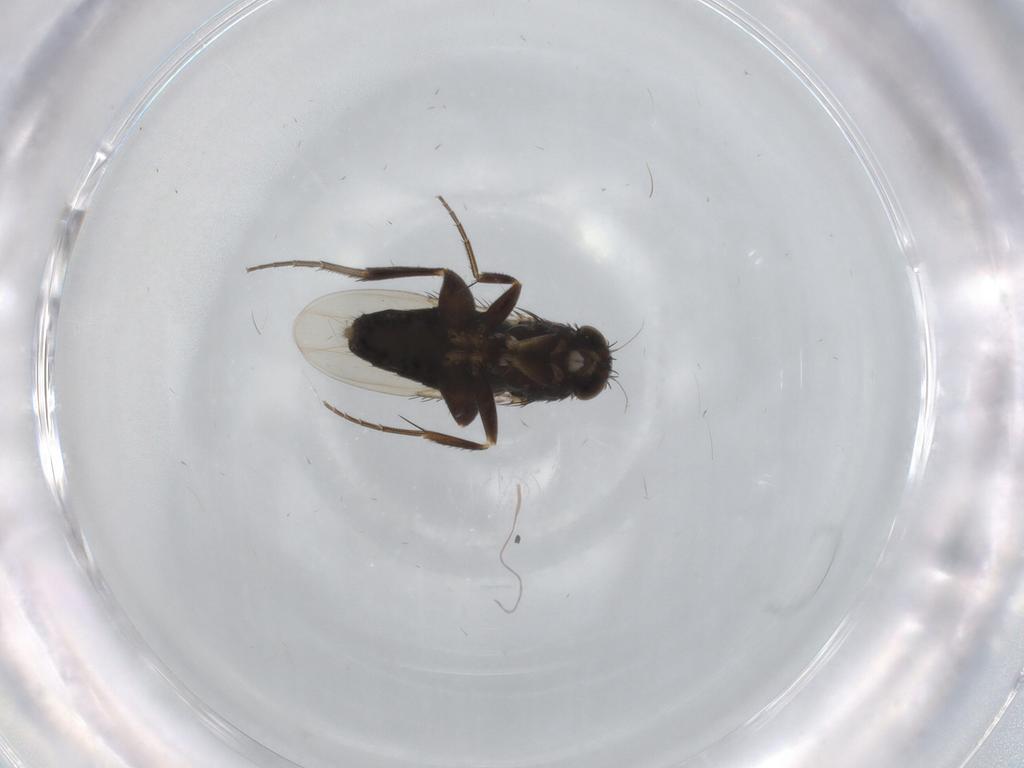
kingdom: Animalia
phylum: Arthropoda
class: Insecta
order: Diptera
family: Phoridae
